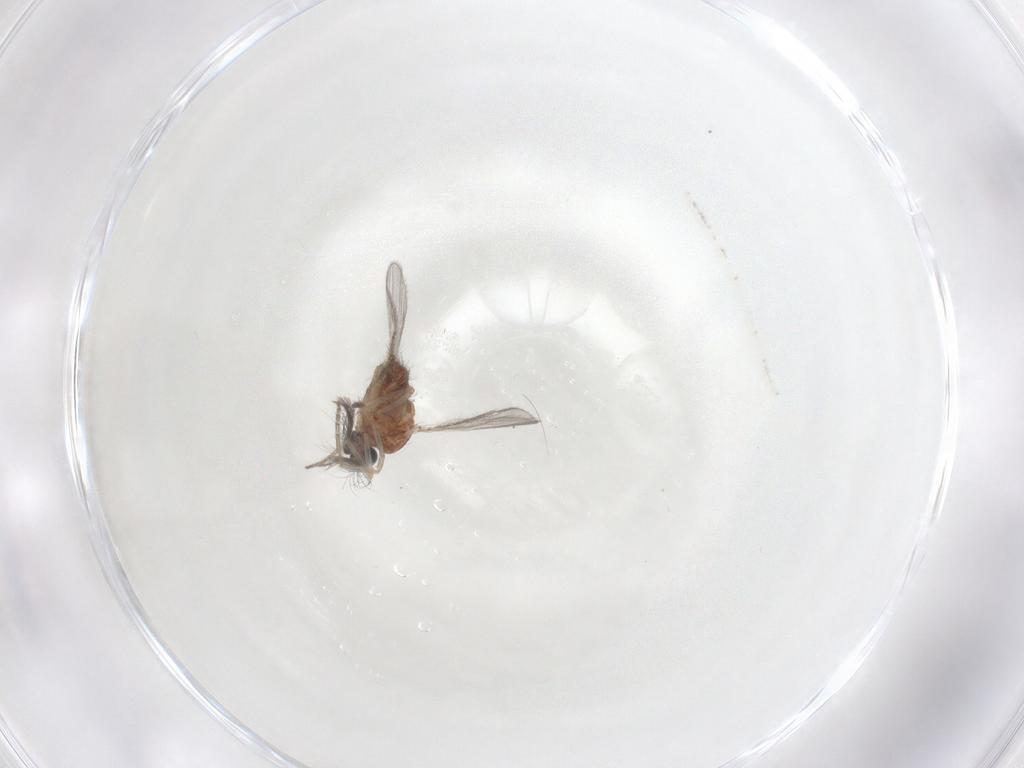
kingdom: Animalia
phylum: Arthropoda
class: Insecta
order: Diptera
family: Ceratopogonidae
